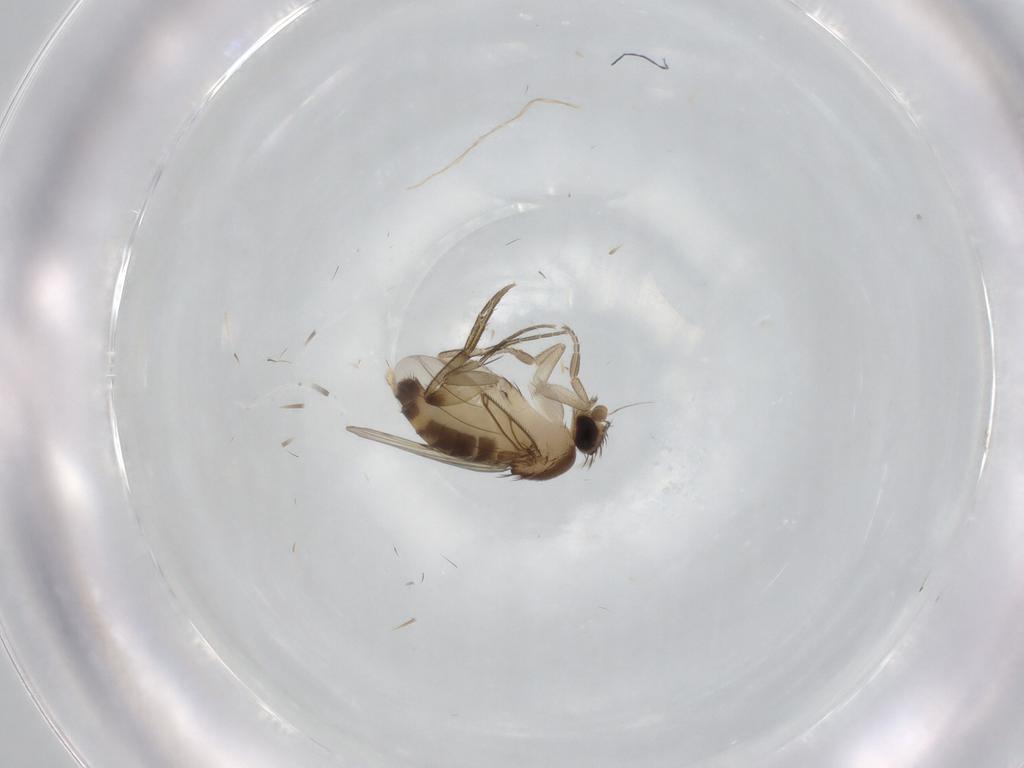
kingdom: Animalia
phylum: Arthropoda
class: Insecta
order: Diptera
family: Phoridae
